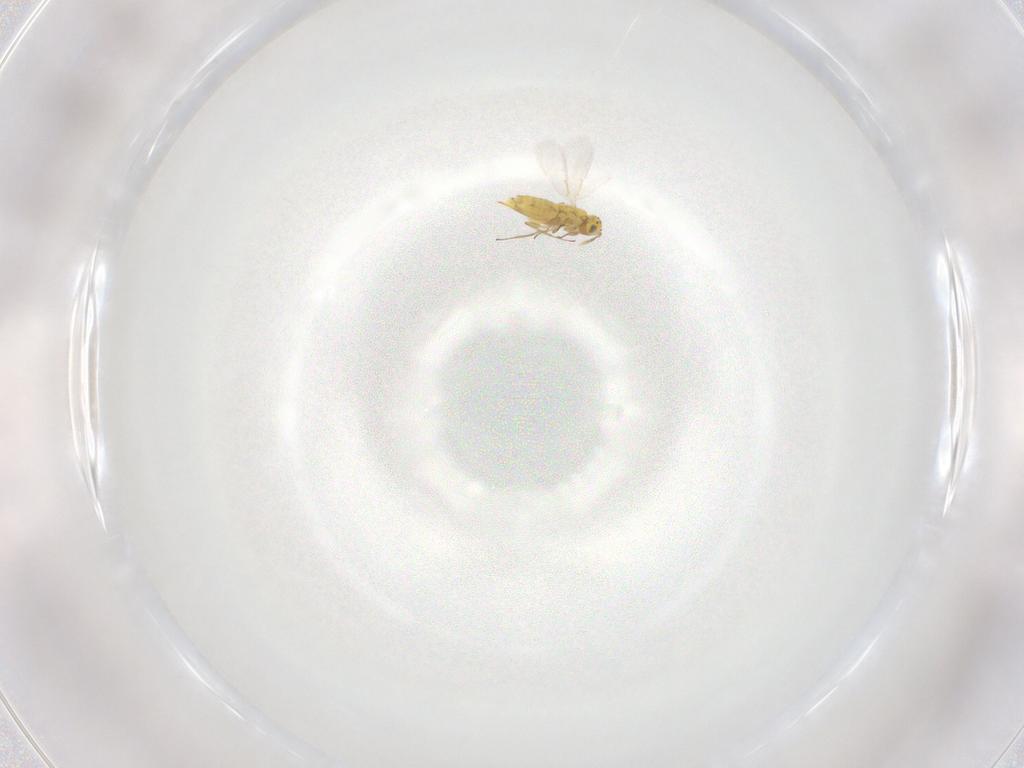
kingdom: Animalia
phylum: Arthropoda
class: Insecta
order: Hymenoptera
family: Aphelinidae
